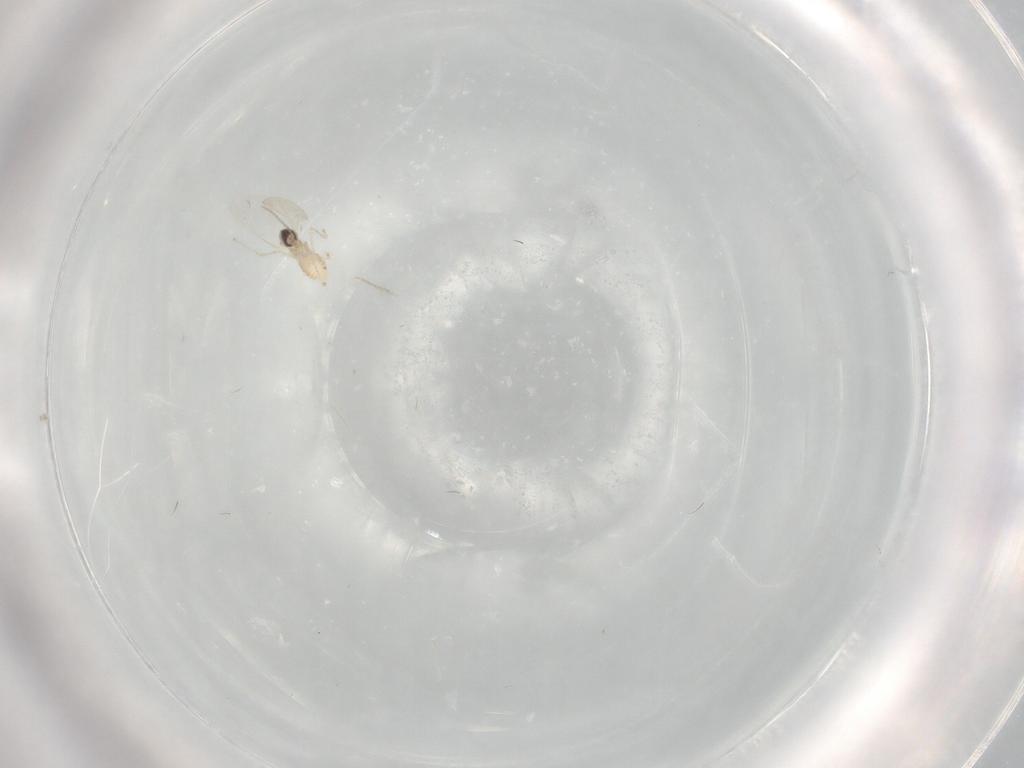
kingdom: Animalia
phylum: Arthropoda
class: Insecta
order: Diptera
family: Cecidomyiidae
